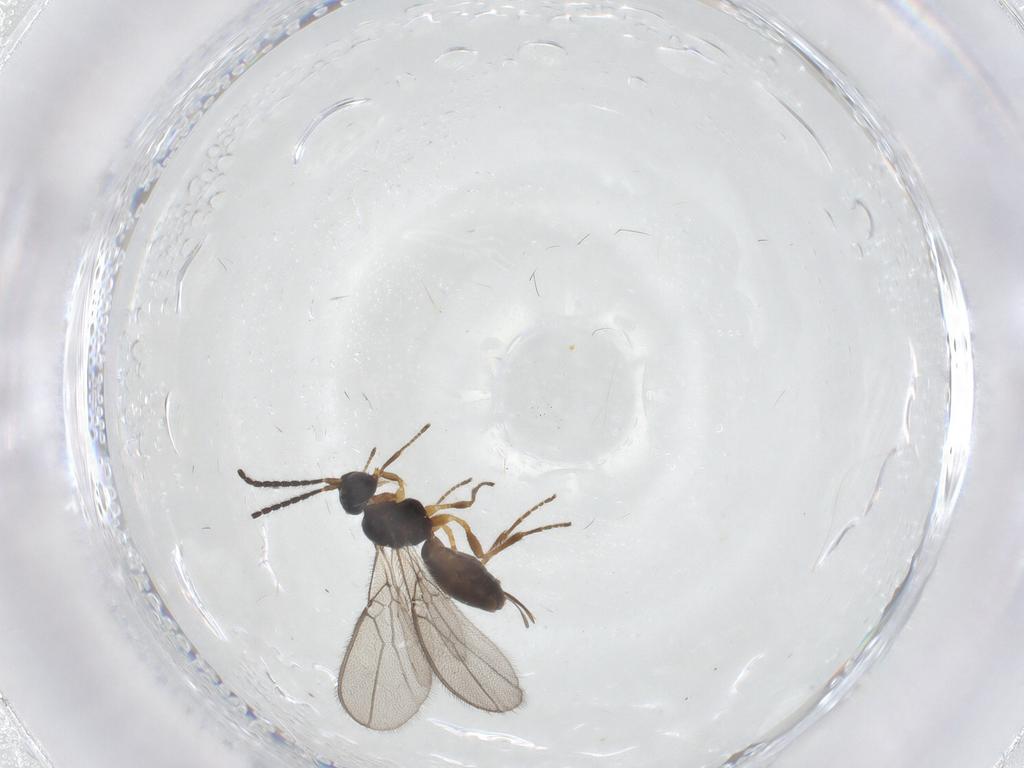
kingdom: Animalia
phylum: Arthropoda
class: Insecta
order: Hymenoptera
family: Braconidae
